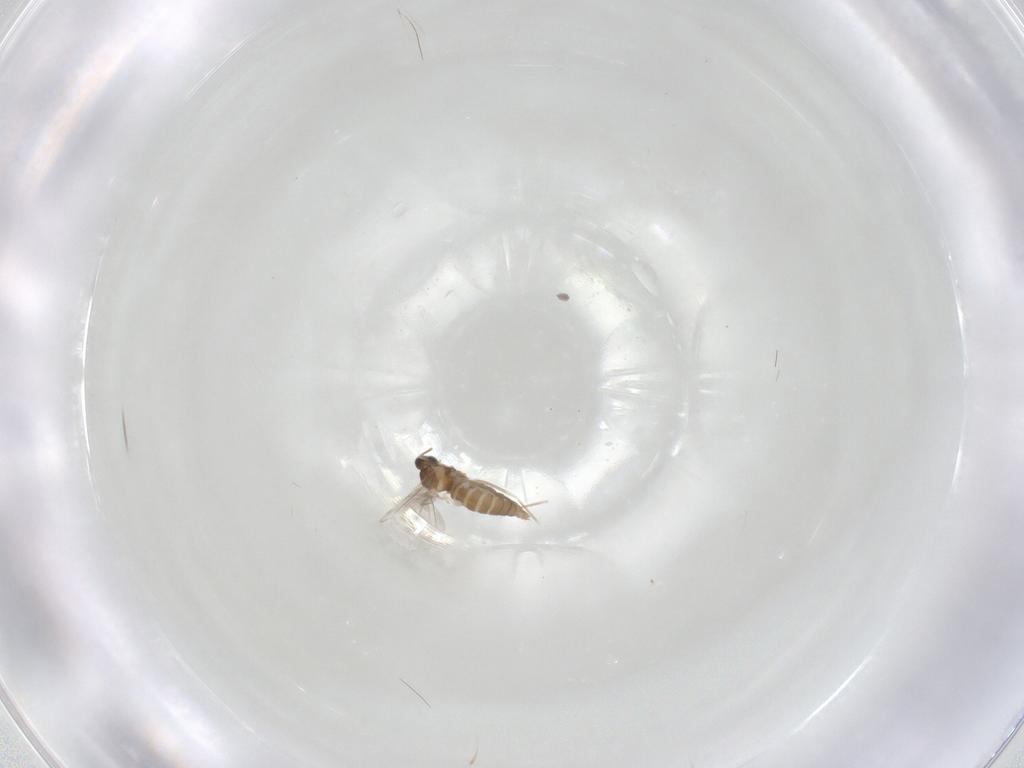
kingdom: Animalia
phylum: Arthropoda
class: Insecta
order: Diptera
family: Cecidomyiidae
